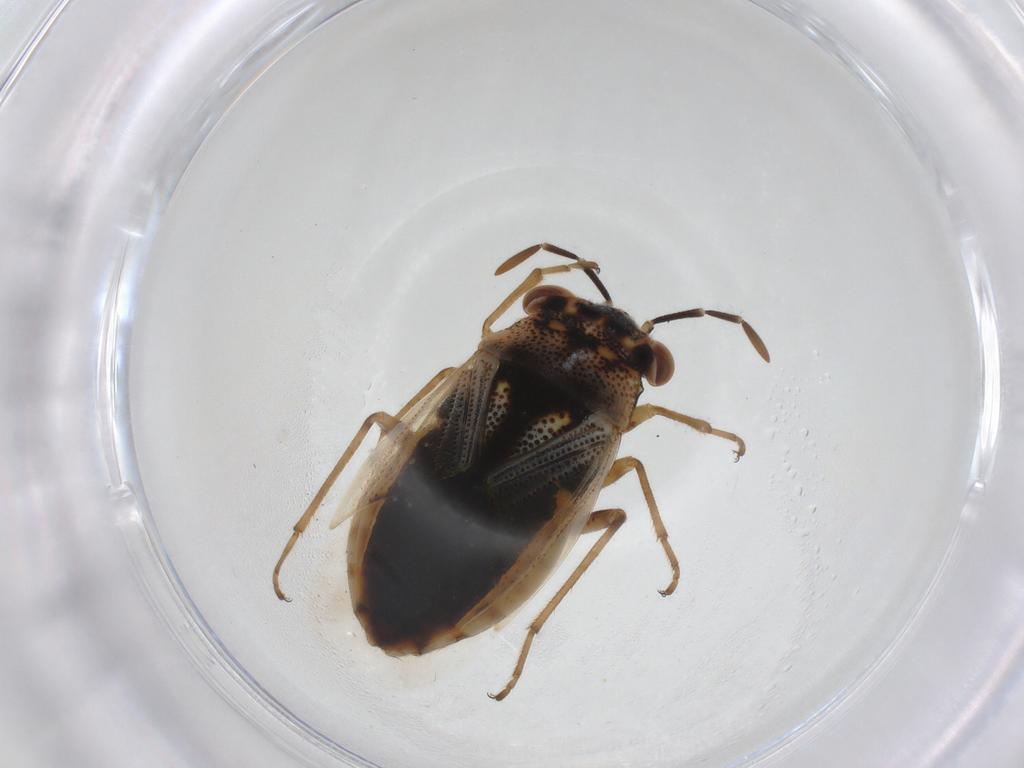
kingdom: Animalia
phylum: Arthropoda
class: Insecta
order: Hemiptera
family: Geocoridae
